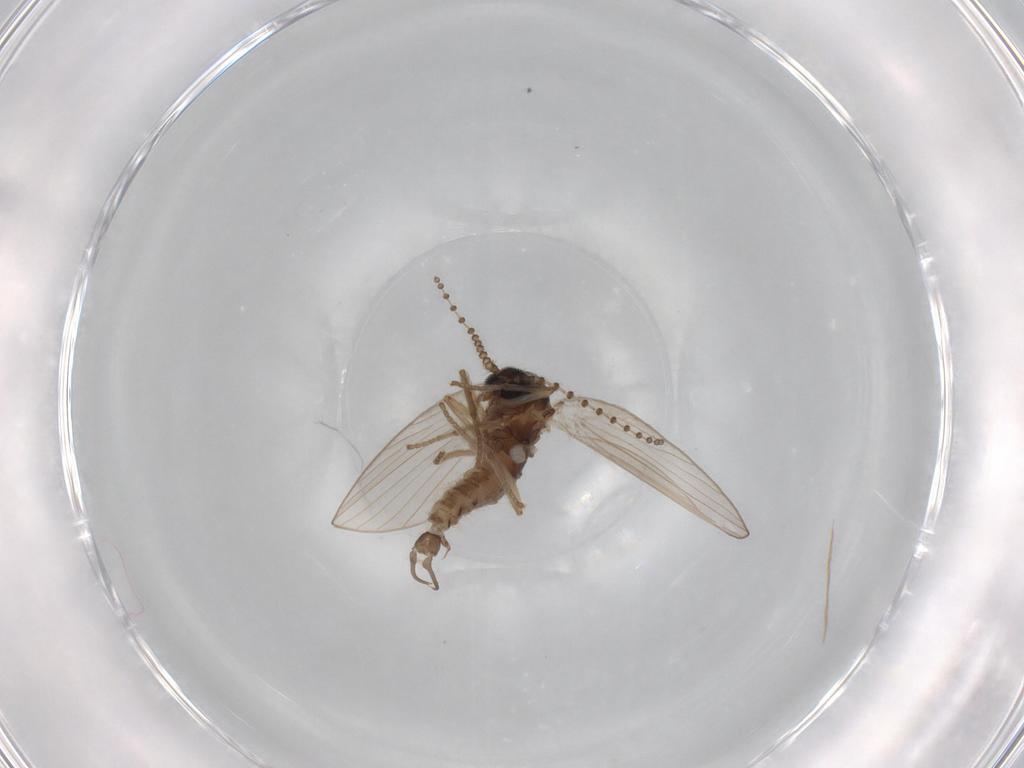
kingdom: Animalia
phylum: Arthropoda
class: Insecta
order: Diptera
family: Psychodidae
